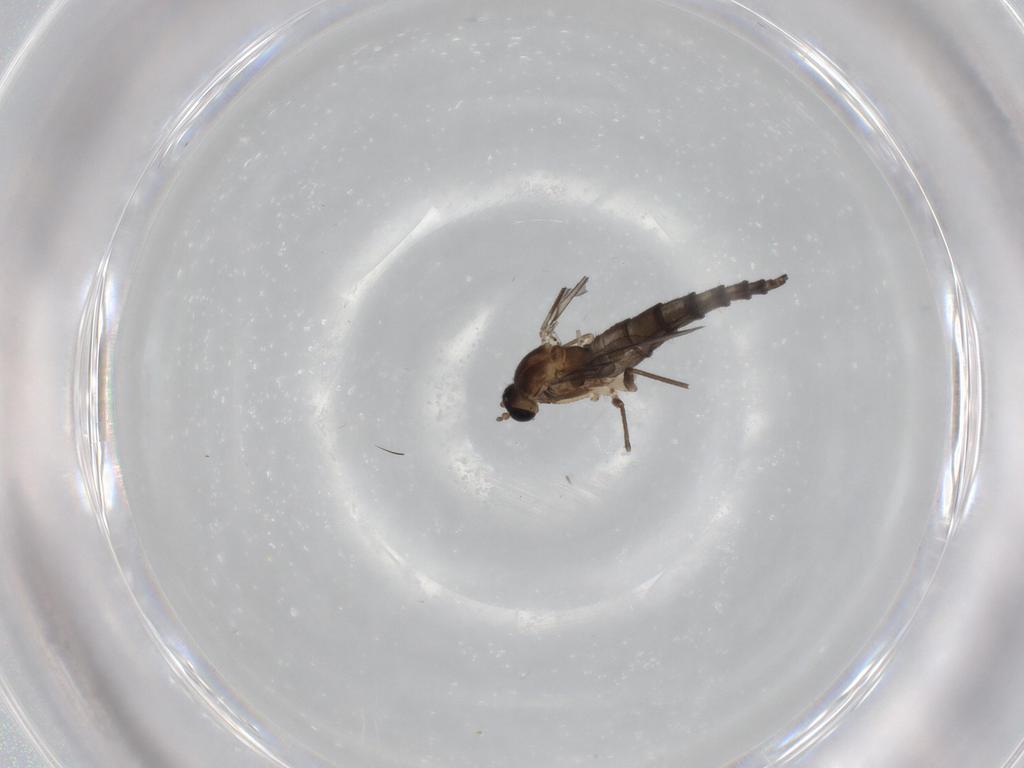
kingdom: Animalia
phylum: Arthropoda
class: Insecta
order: Diptera
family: Sciaridae
